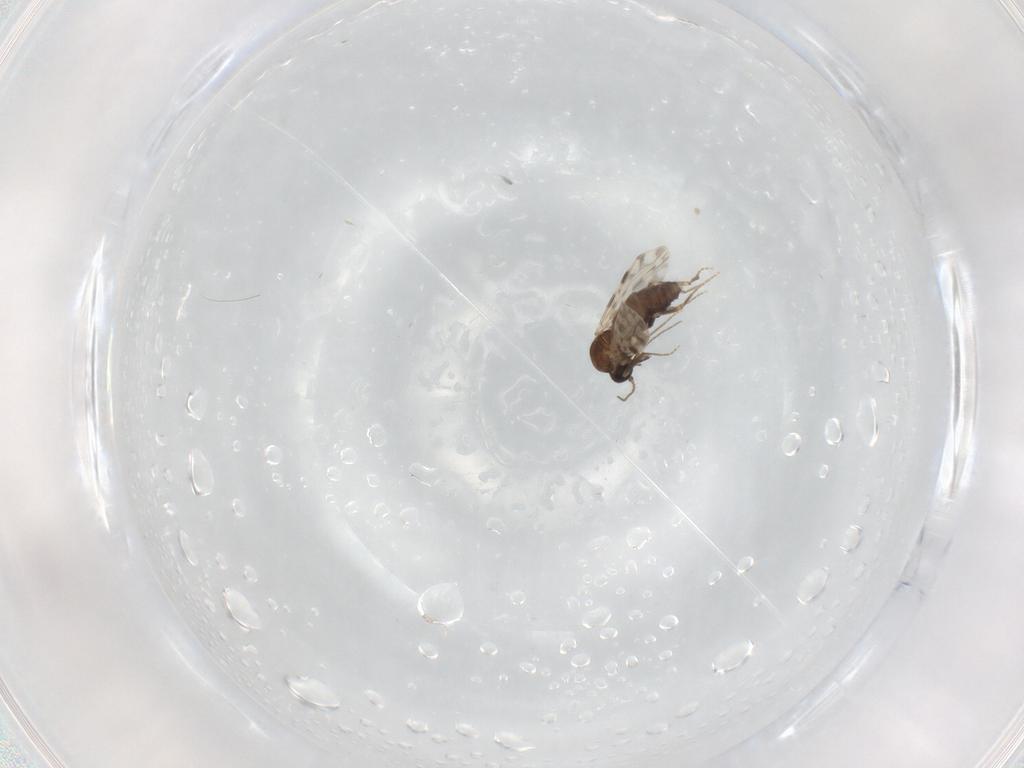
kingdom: Animalia
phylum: Arthropoda
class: Insecta
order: Diptera
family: Ceratopogonidae
